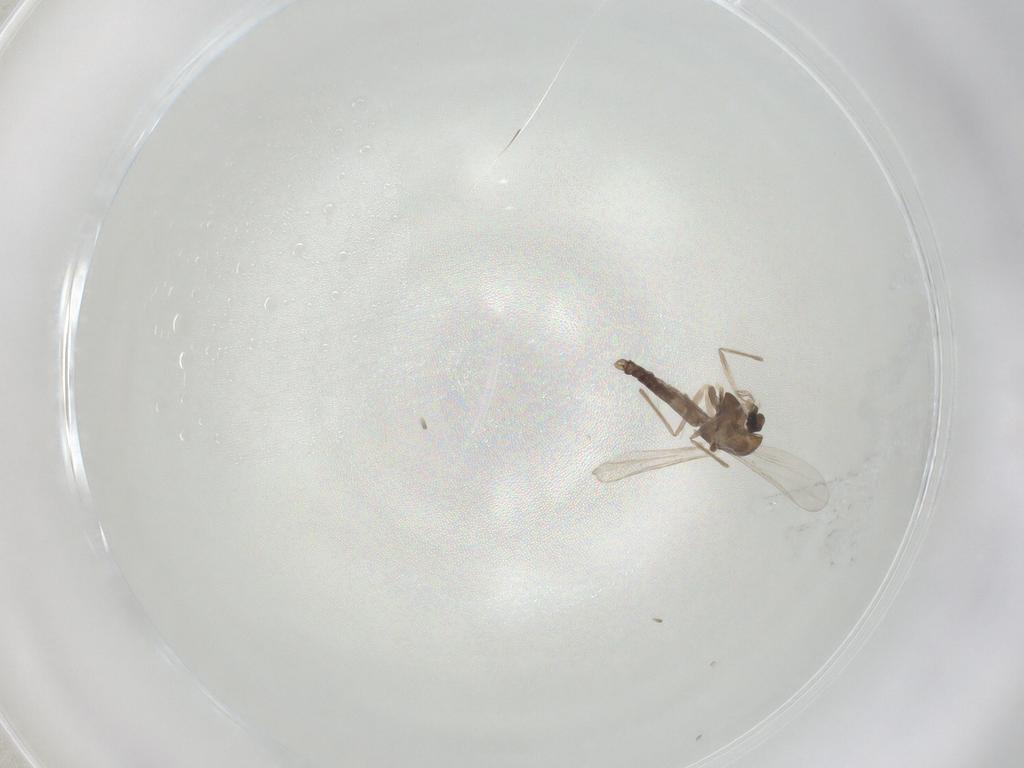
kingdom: Animalia
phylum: Arthropoda
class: Insecta
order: Diptera
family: Chironomidae
